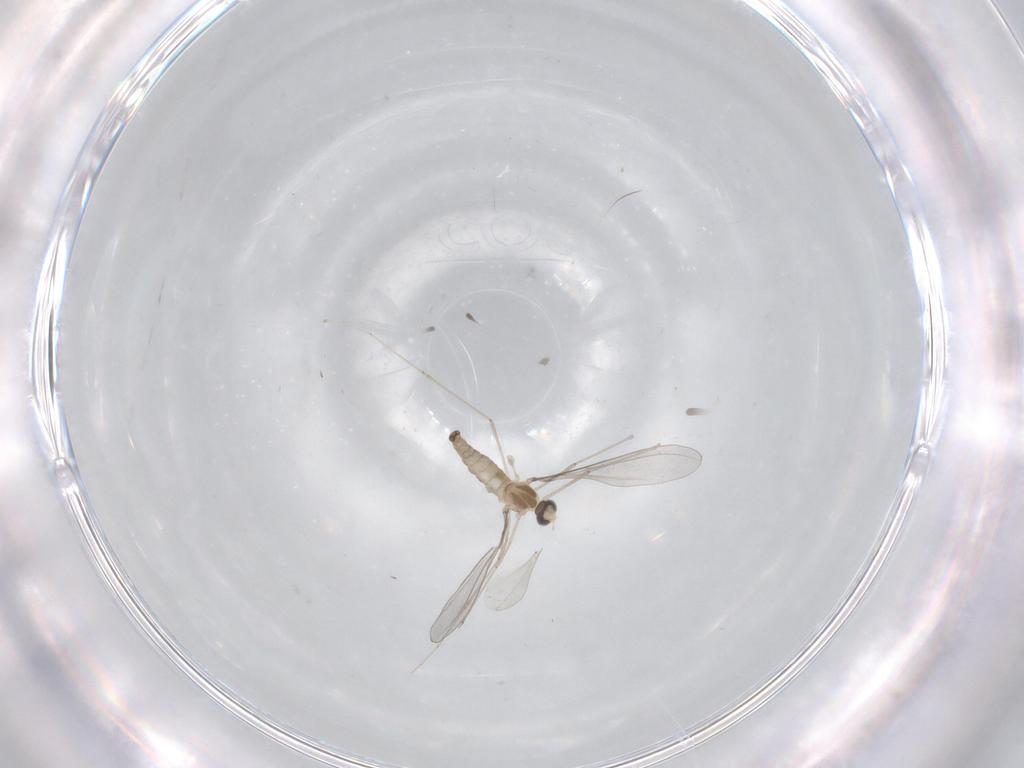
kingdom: Animalia
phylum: Arthropoda
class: Insecta
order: Diptera
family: Cecidomyiidae
